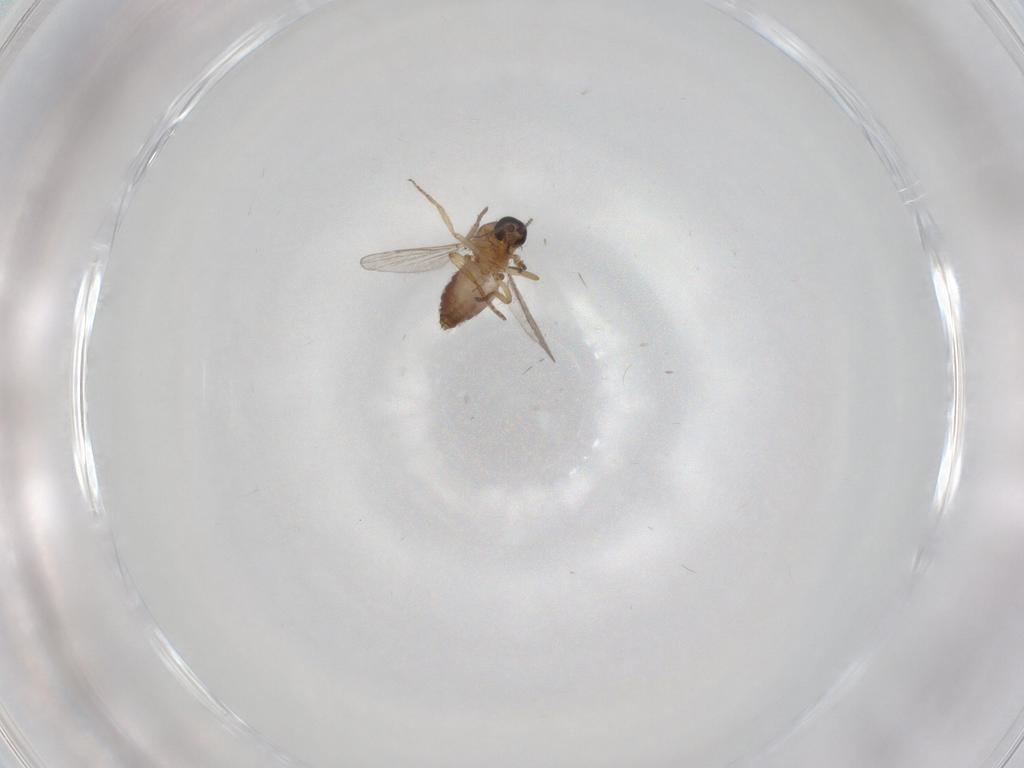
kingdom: Animalia
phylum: Arthropoda
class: Insecta
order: Diptera
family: Ceratopogonidae
